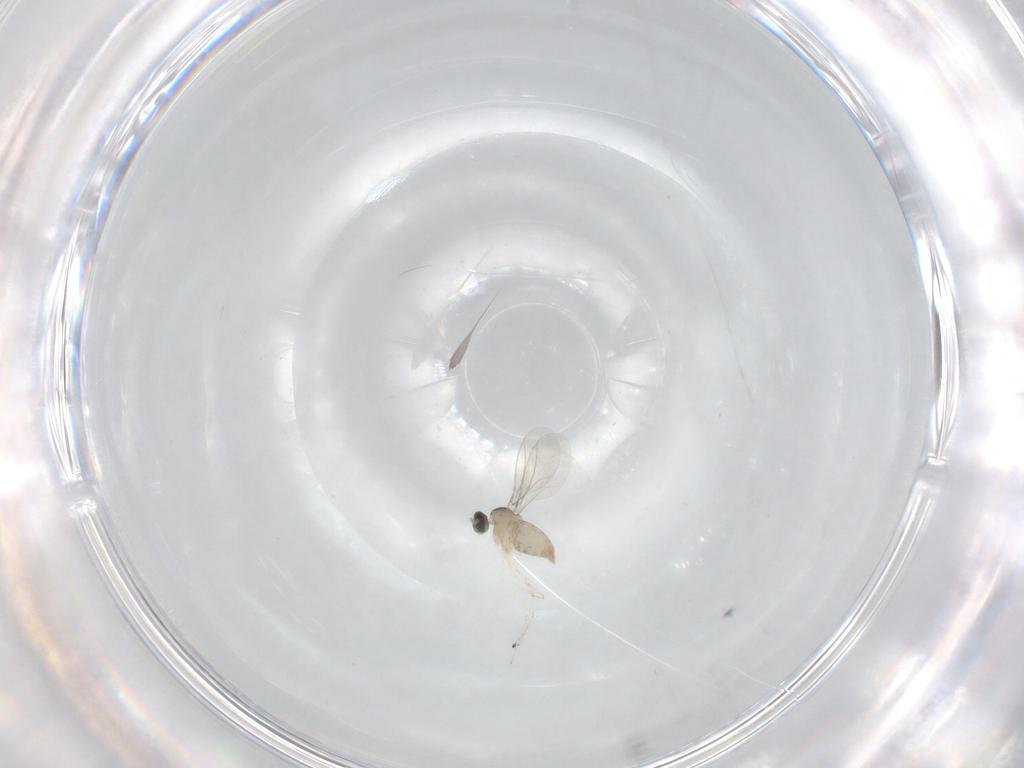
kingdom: Animalia
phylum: Arthropoda
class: Insecta
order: Diptera
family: Cecidomyiidae
